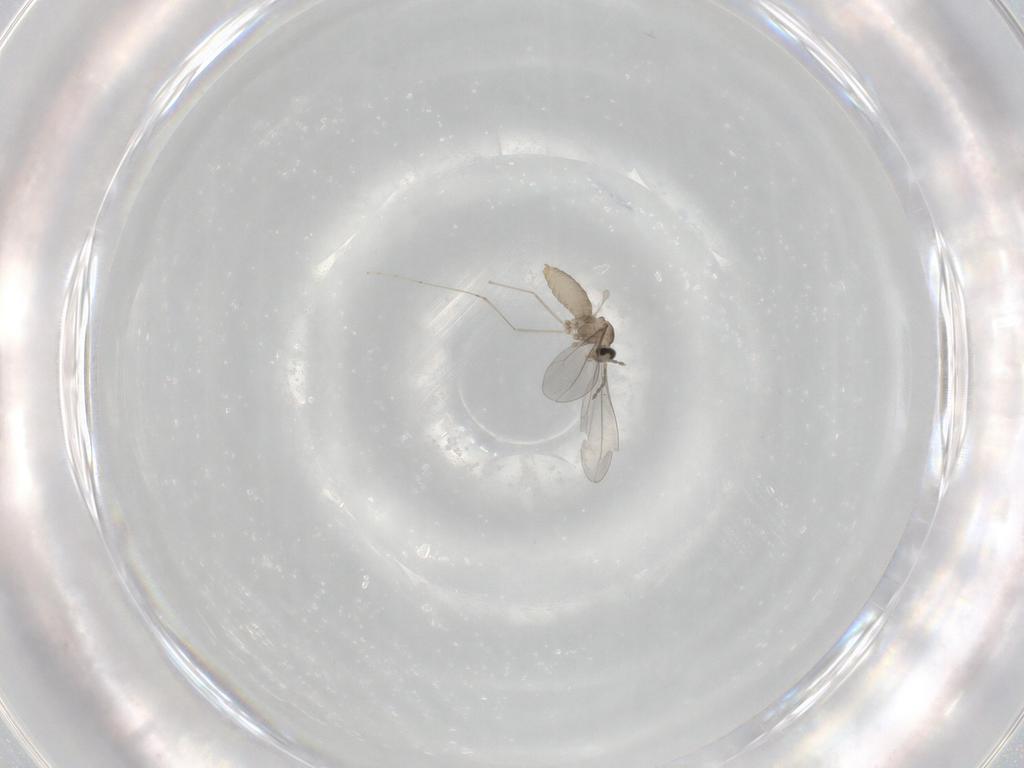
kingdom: Animalia
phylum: Arthropoda
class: Insecta
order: Diptera
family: Cecidomyiidae
